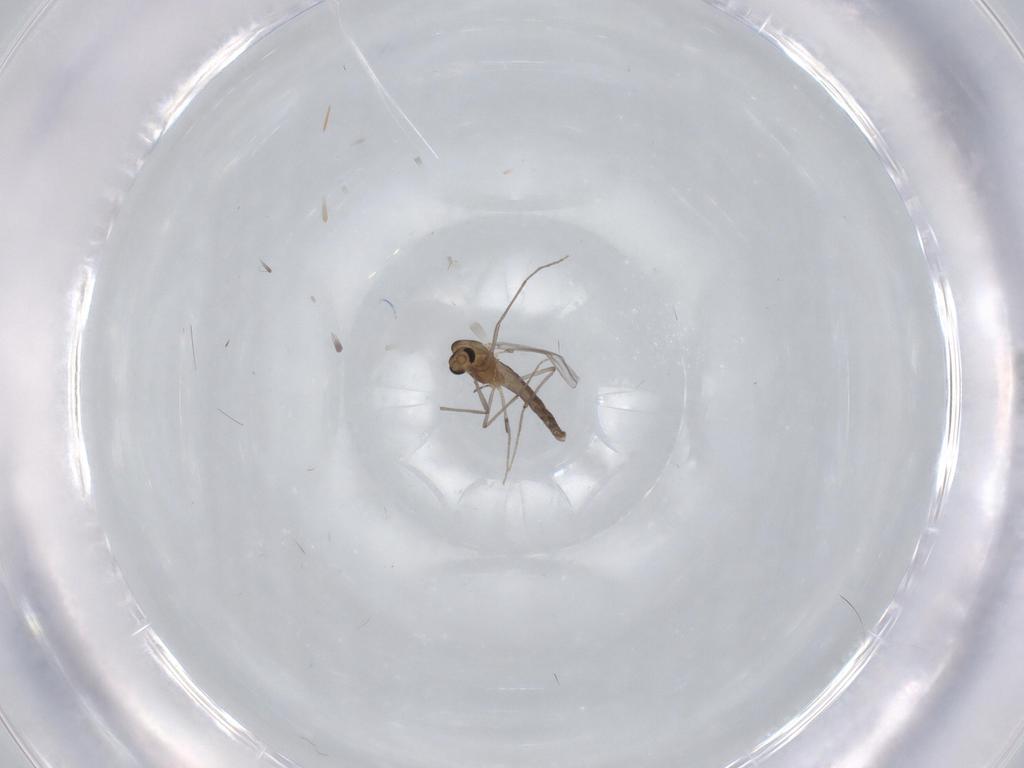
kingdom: Animalia
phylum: Arthropoda
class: Insecta
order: Diptera
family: Chironomidae
